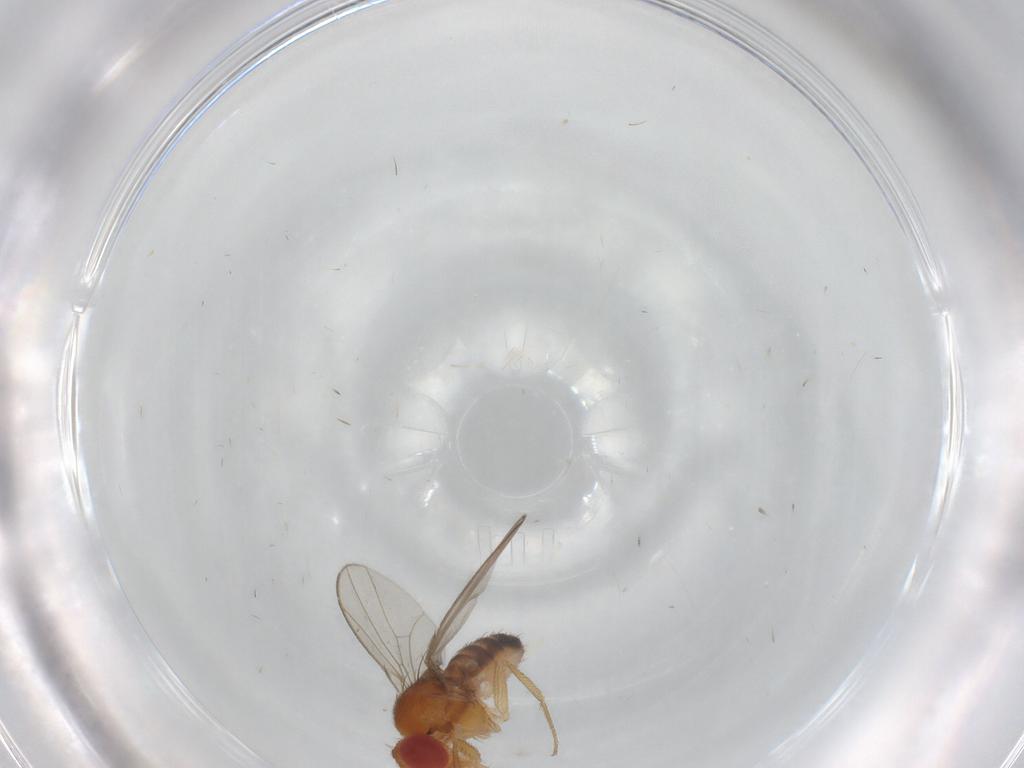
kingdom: Animalia
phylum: Arthropoda
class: Insecta
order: Diptera
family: Drosophilidae
